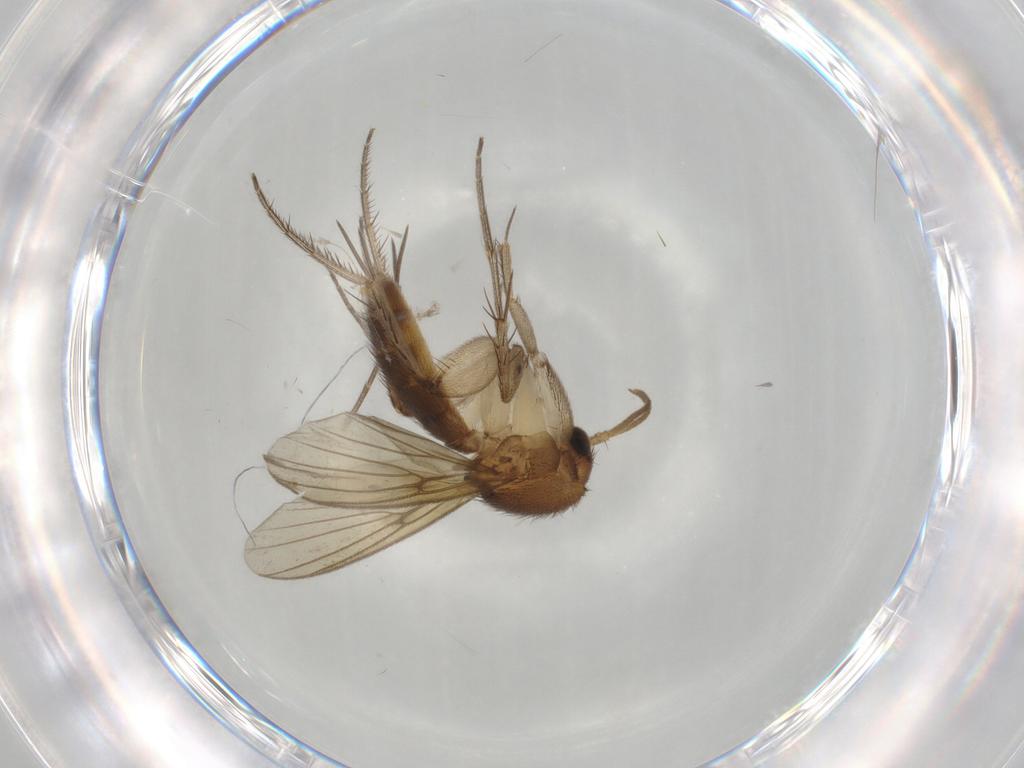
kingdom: Animalia
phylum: Arthropoda
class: Insecta
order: Diptera
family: Mycetophilidae
